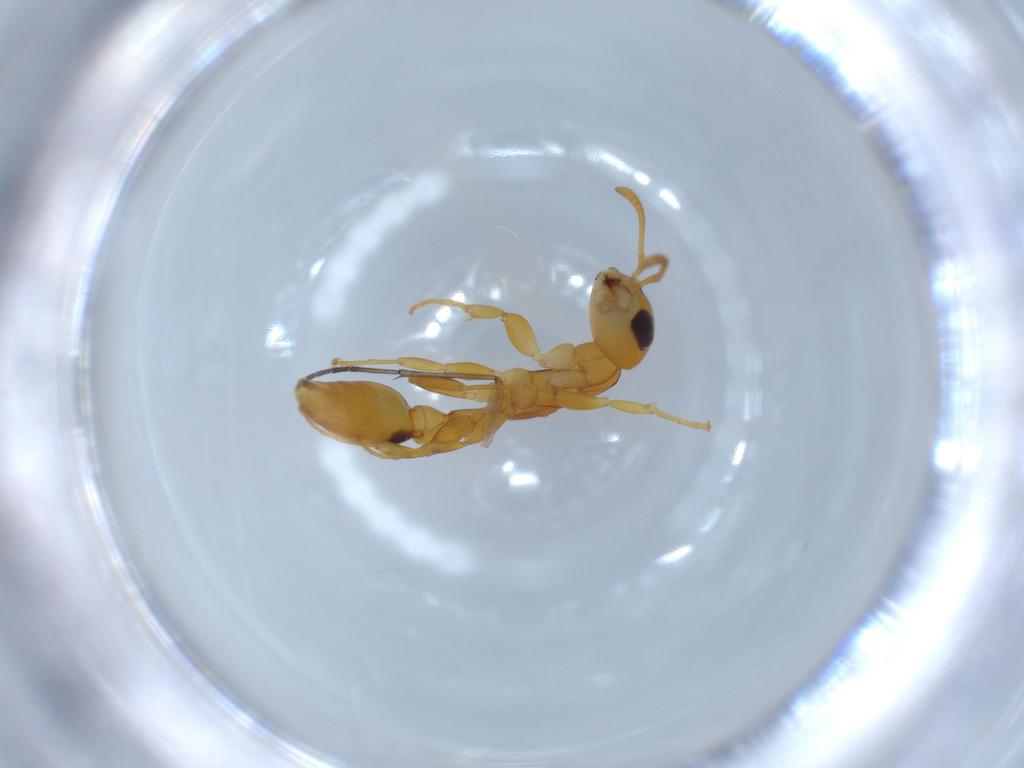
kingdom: Animalia
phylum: Arthropoda
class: Insecta
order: Hymenoptera
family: Formicidae
